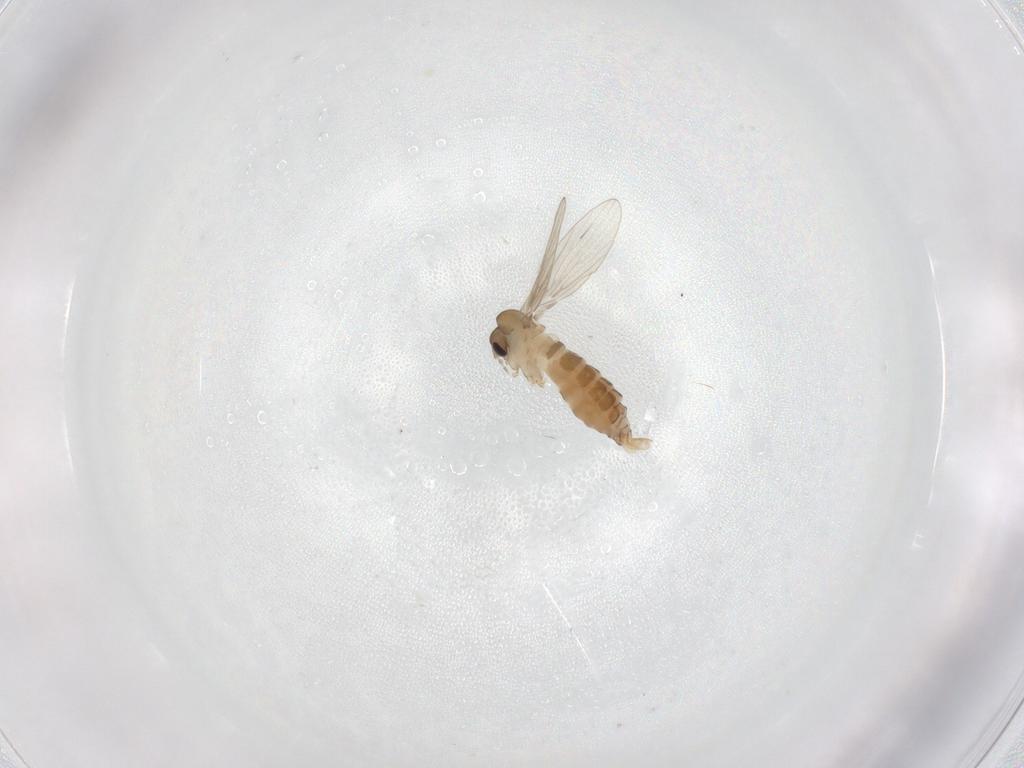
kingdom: Animalia
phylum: Arthropoda
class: Insecta
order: Diptera
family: Psychodidae
